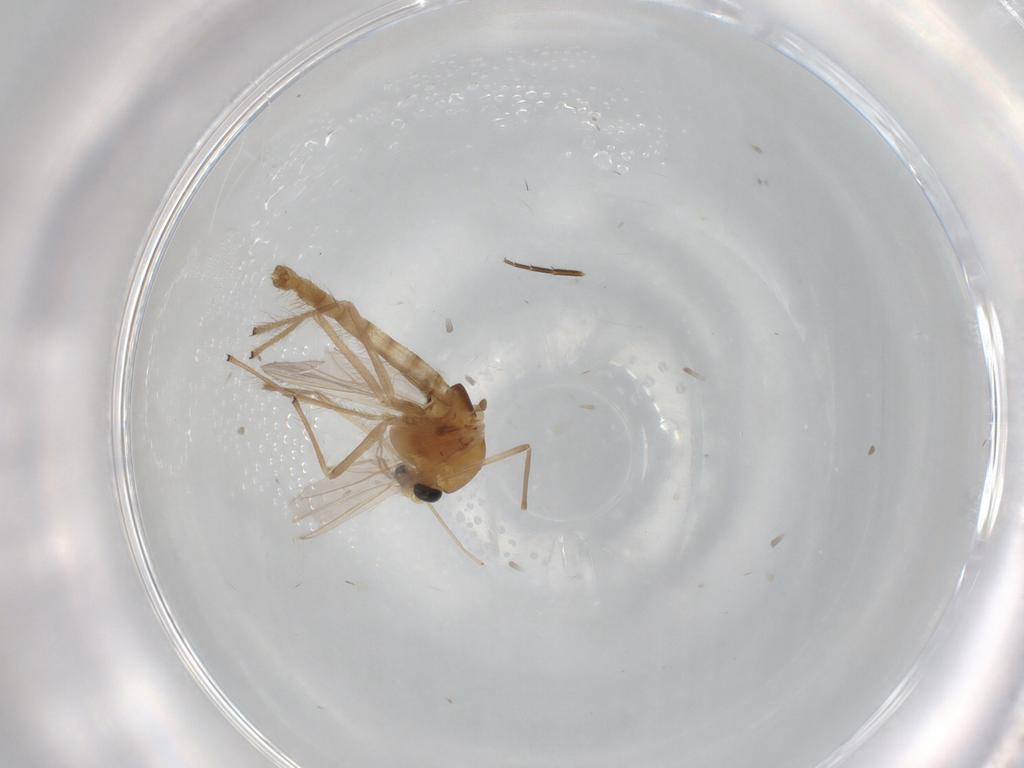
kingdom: Animalia
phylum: Arthropoda
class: Insecta
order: Diptera
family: Chironomidae
